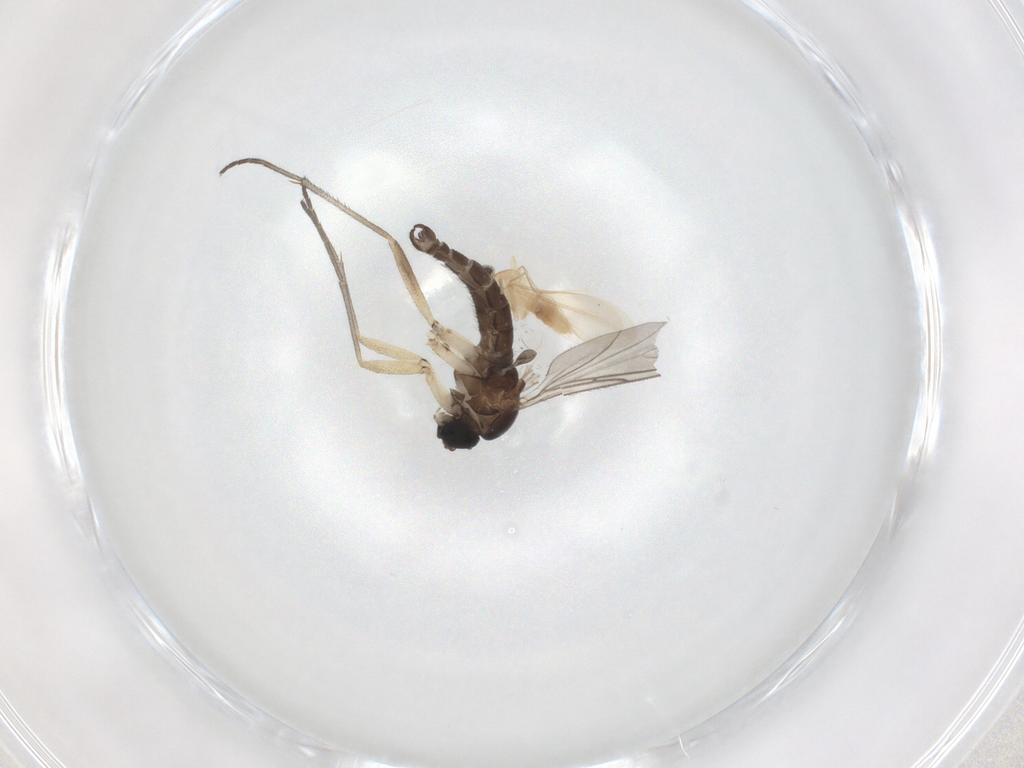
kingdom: Animalia
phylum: Arthropoda
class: Insecta
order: Diptera
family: Cecidomyiidae
